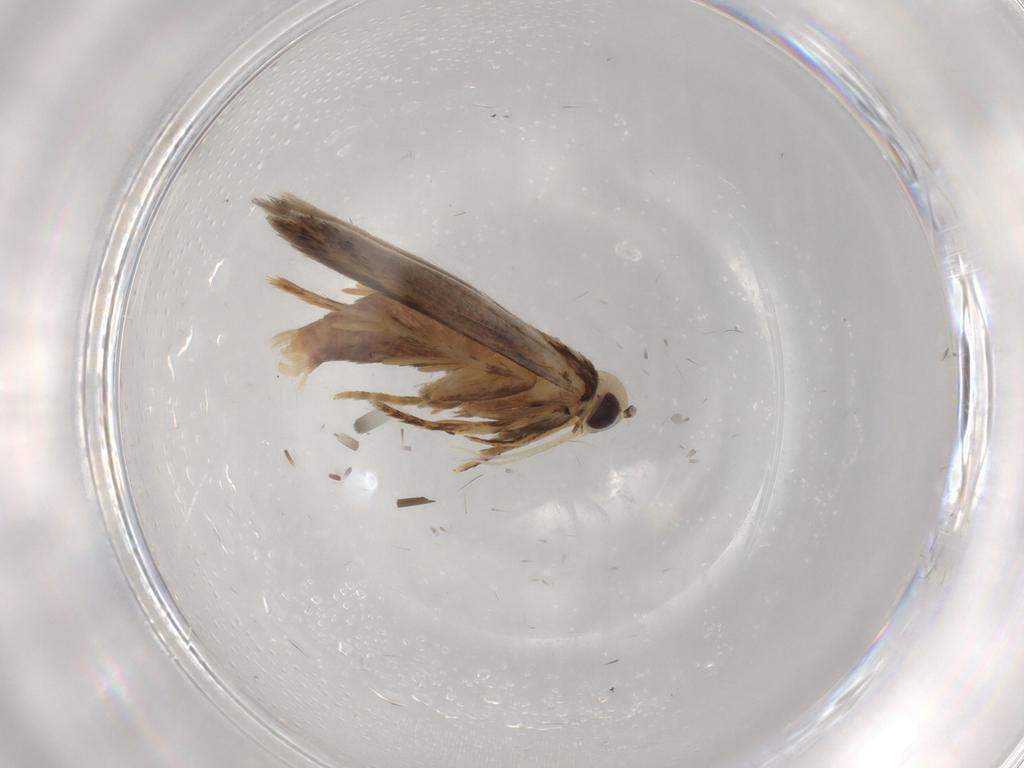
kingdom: Animalia
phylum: Arthropoda
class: Insecta
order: Lepidoptera
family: Coleophoridae
